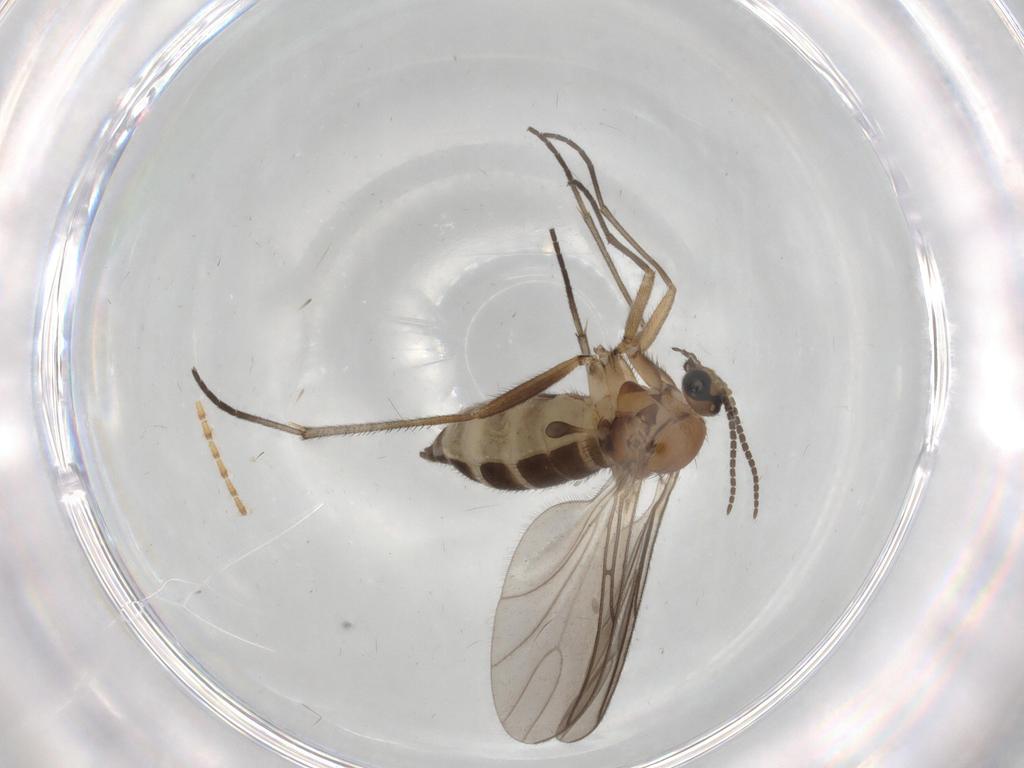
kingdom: Animalia
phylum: Arthropoda
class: Insecta
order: Diptera
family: Sciaridae
